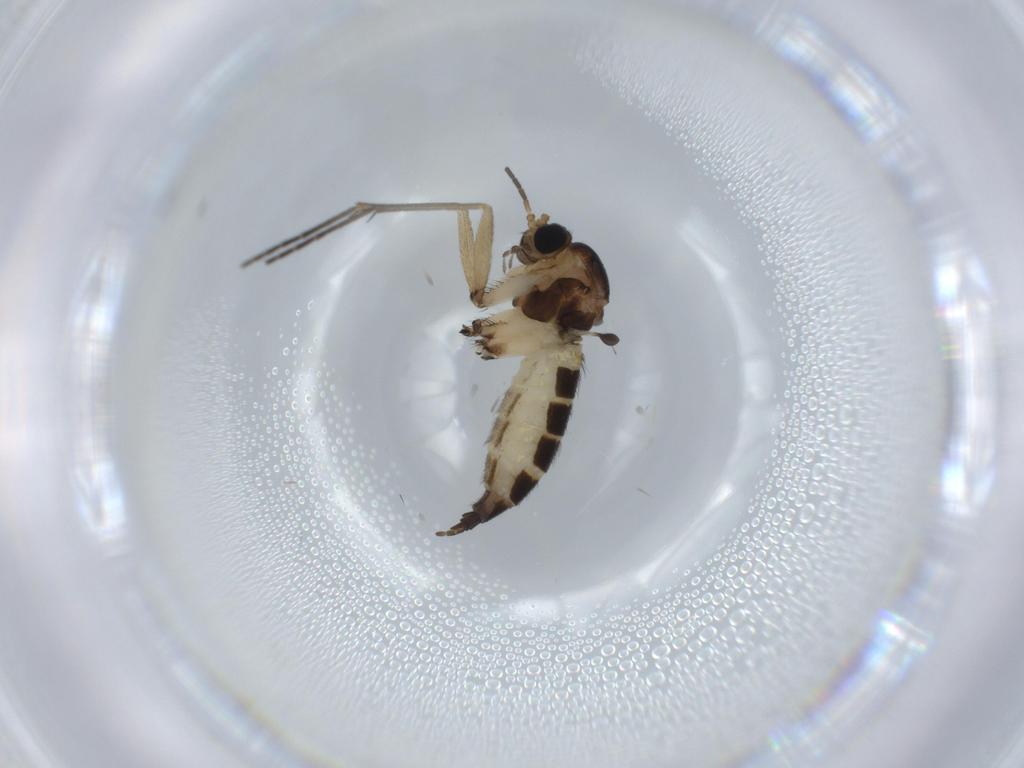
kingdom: Animalia
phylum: Arthropoda
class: Insecta
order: Diptera
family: Sciaridae
